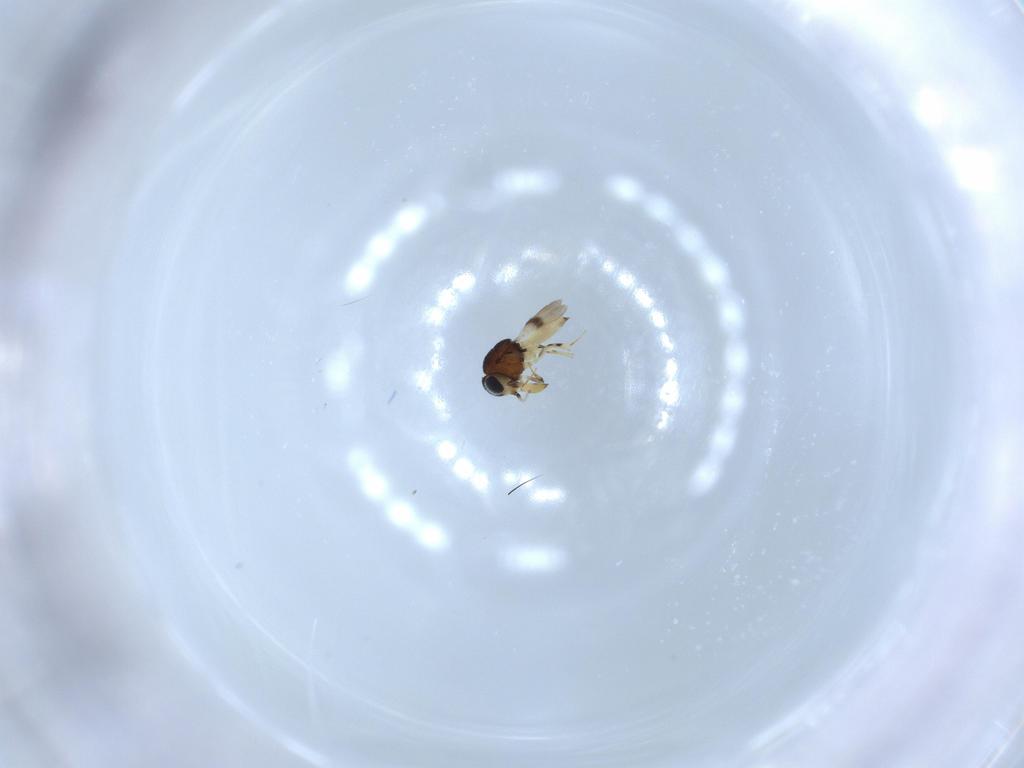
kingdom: Animalia
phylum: Arthropoda
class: Insecta
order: Hymenoptera
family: Scelionidae
